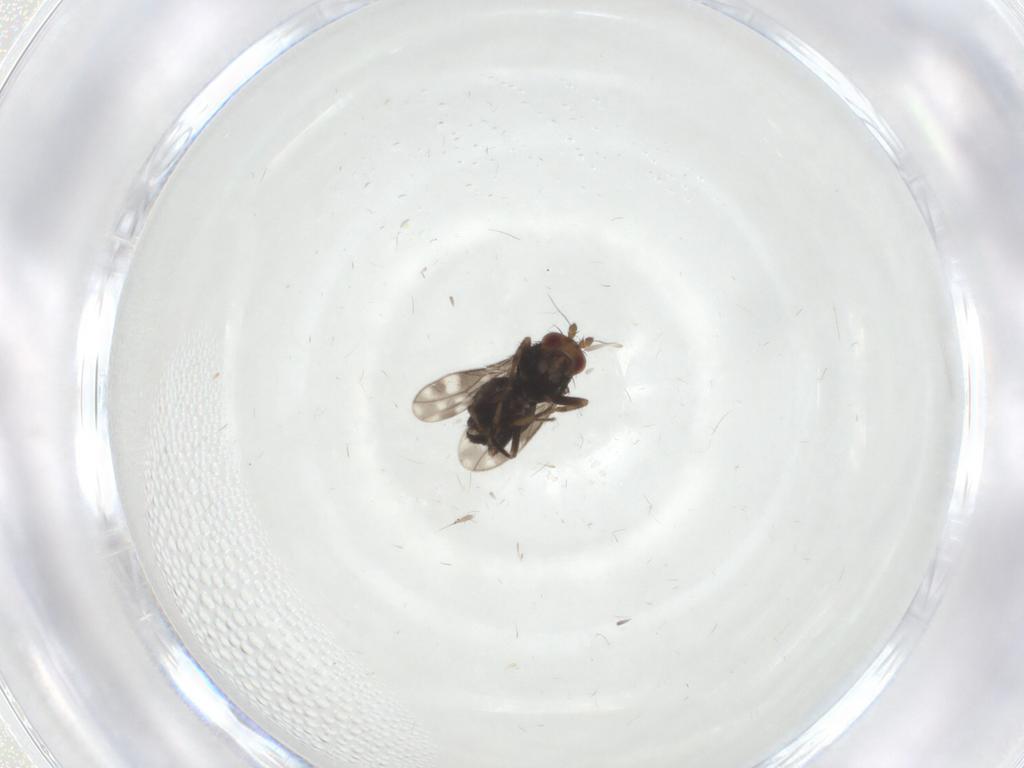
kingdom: Animalia
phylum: Arthropoda
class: Insecta
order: Diptera
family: Sphaeroceridae
